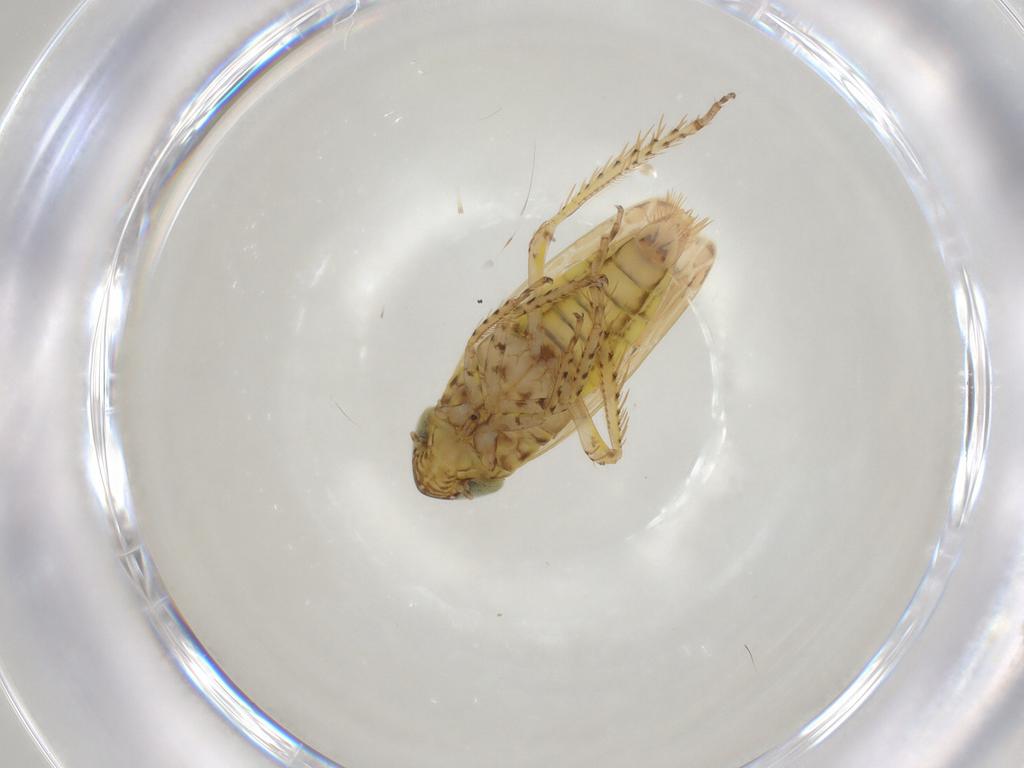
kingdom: Animalia
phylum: Arthropoda
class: Insecta
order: Hemiptera
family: Cicadellidae
